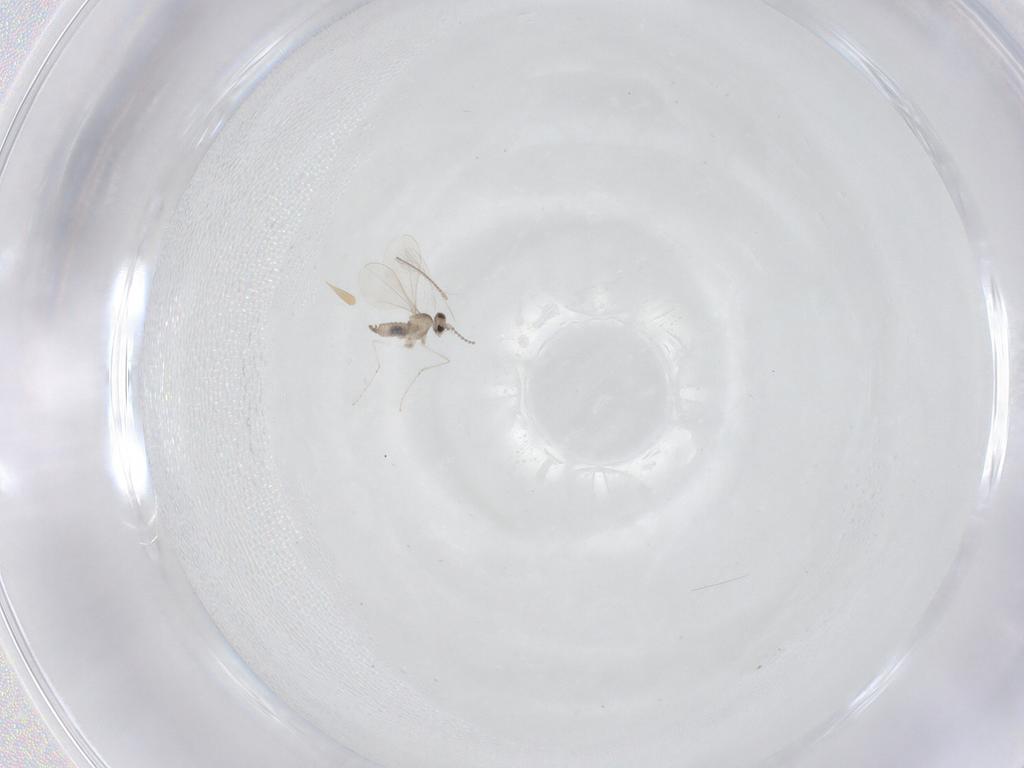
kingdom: Animalia
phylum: Arthropoda
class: Insecta
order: Diptera
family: Chironomidae
